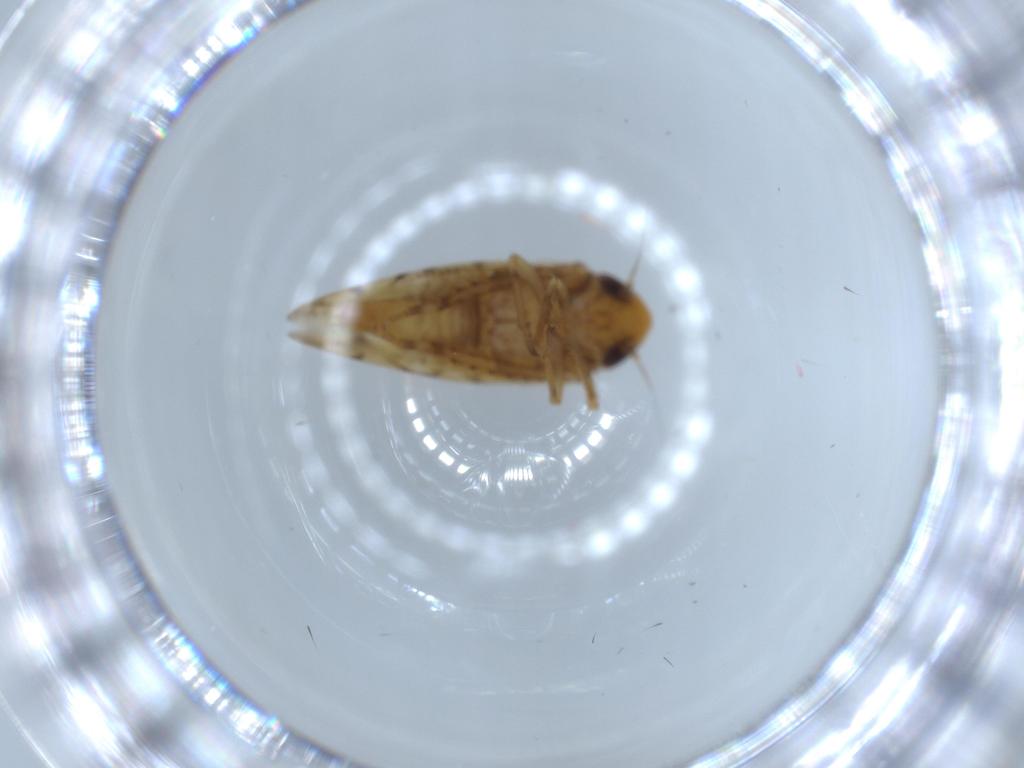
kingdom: Animalia
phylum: Arthropoda
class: Insecta
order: Hemiptera
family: Cicadellidae
